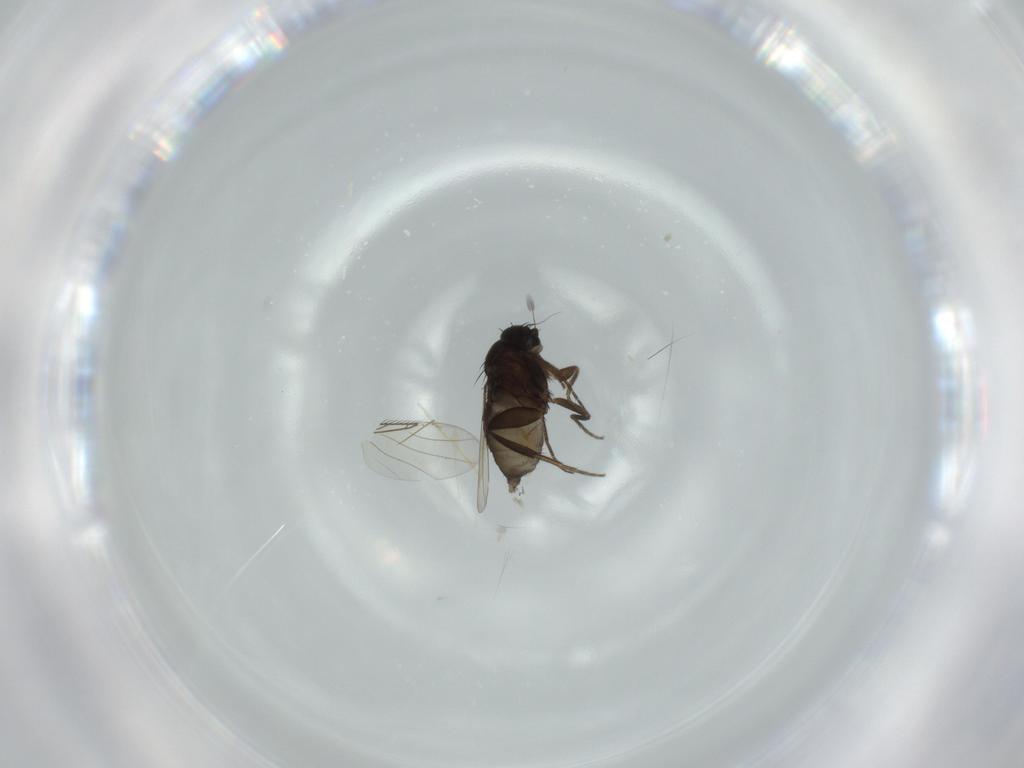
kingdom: Animalia
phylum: Arthropoda
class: Insecta
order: Diptera
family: Phoridae
